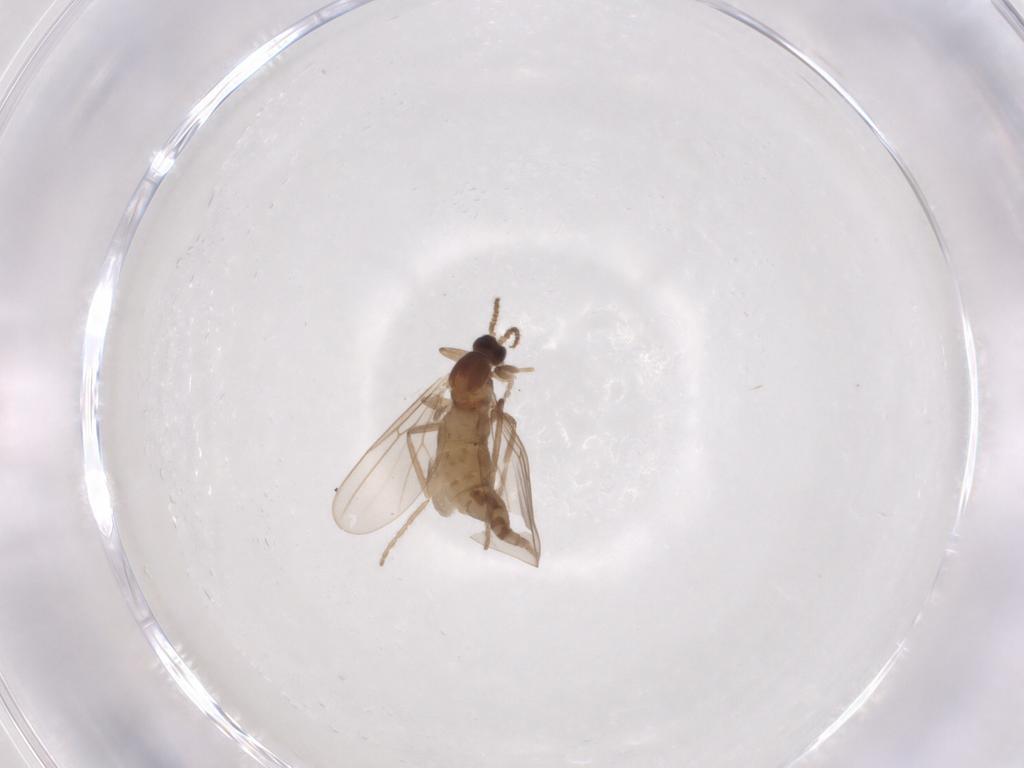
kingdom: Animalia
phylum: Arthropoda
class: Insecta
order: Diptera
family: Cecidomyiidae
